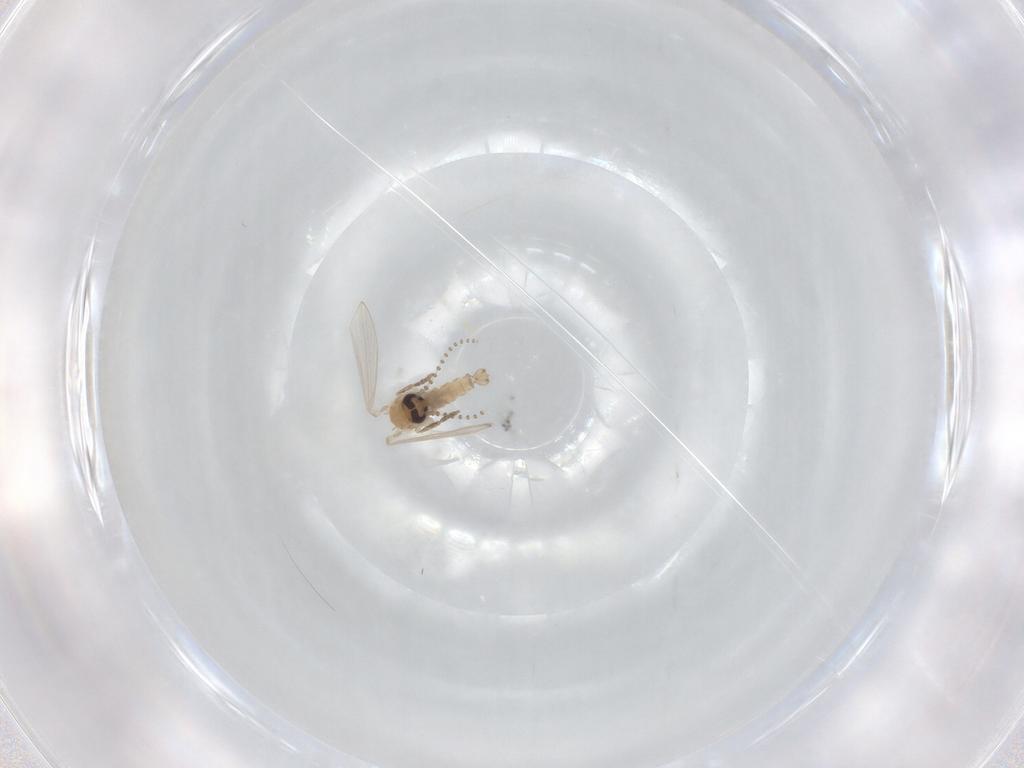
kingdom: Animalia
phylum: Arthropoda
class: Insecta
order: Diptera
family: Psychodidae
